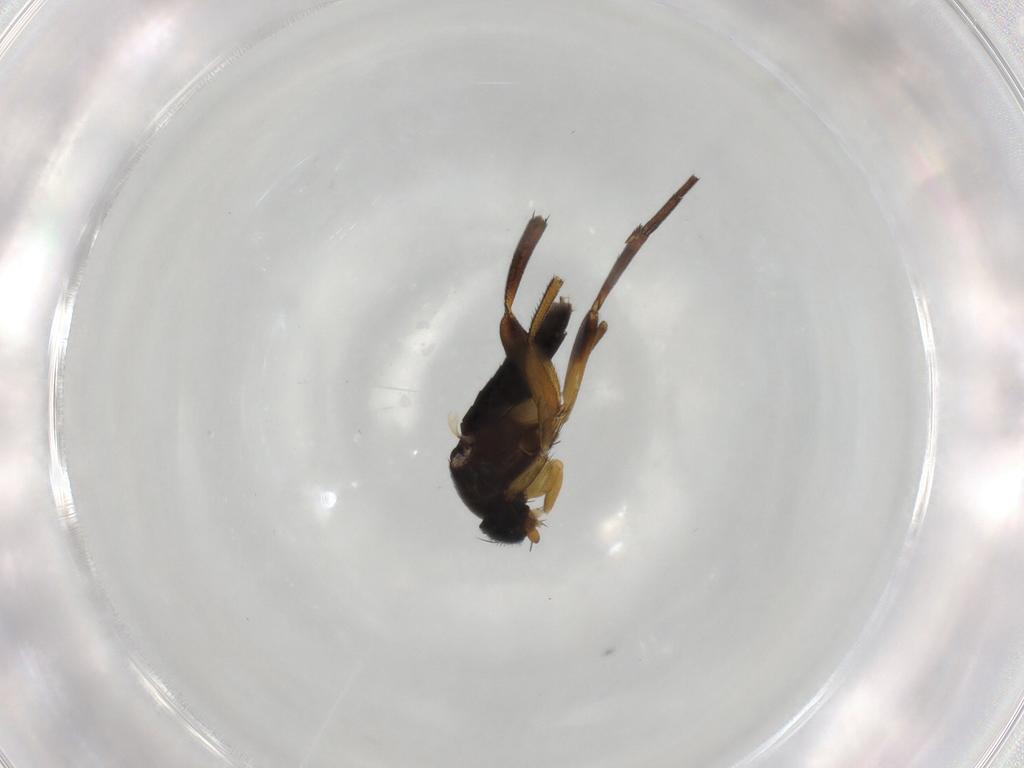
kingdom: Animalia
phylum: Arthropoda
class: Insecta
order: Diptera
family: Phoridae
